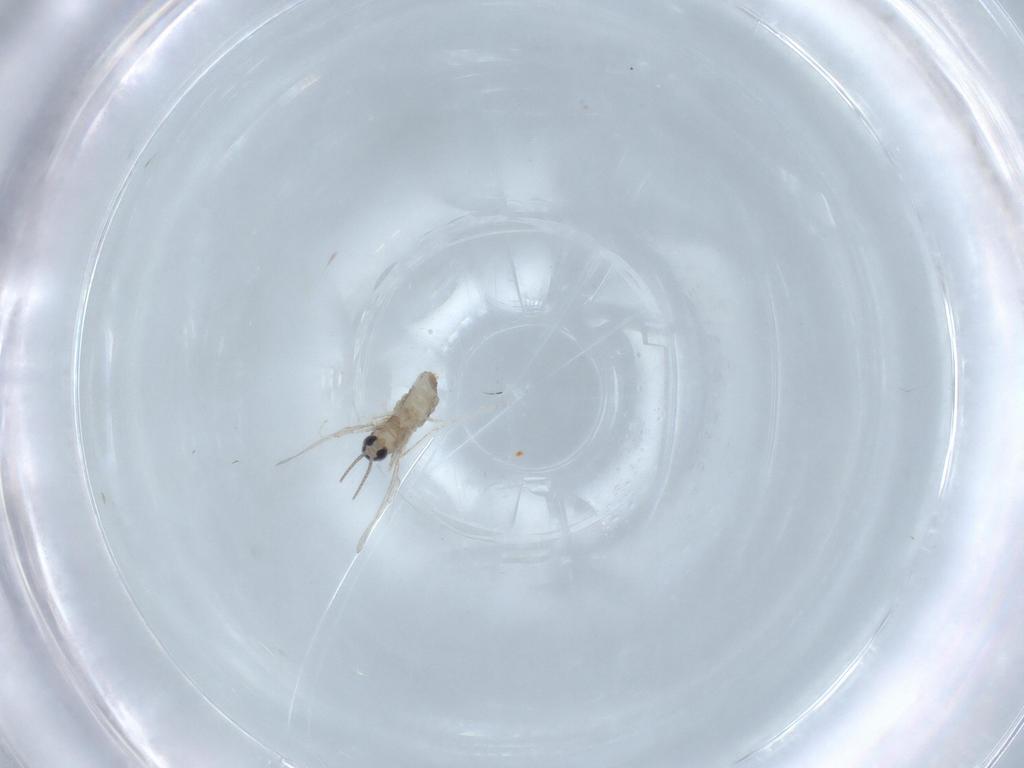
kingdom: Animalia
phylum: Arthropoda
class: Insecta
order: Diptera
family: Cecidomyiidae
